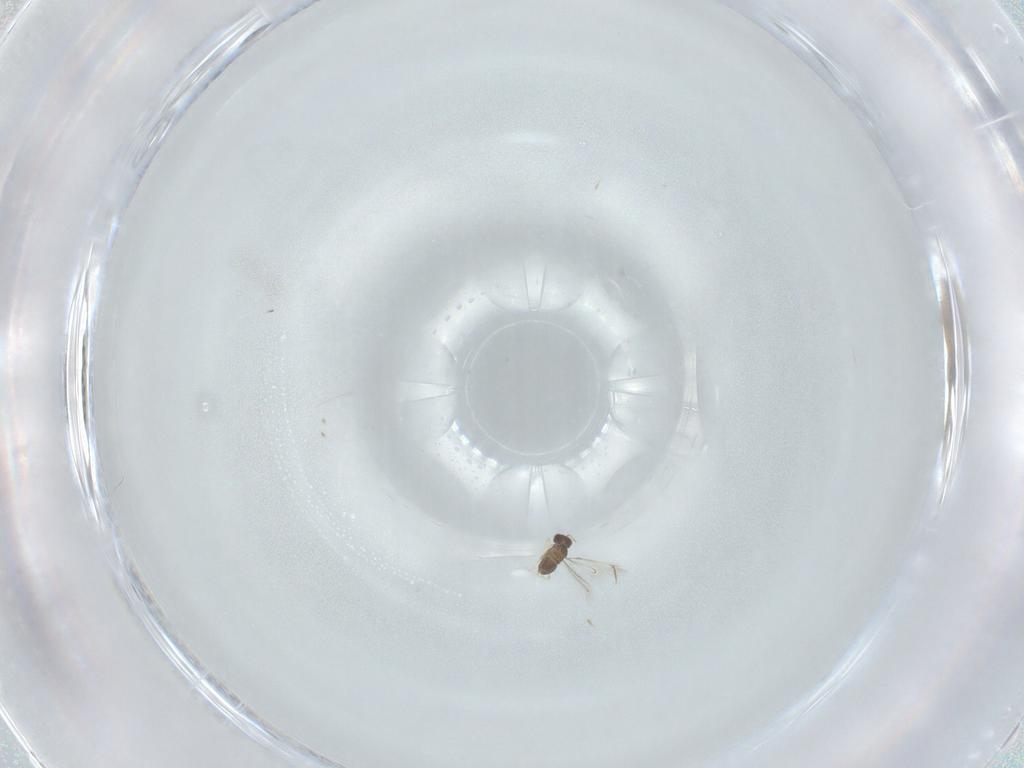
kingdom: Animalia
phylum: Arthropoda
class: Insecta
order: Hymenoptera
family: Mymaridae
